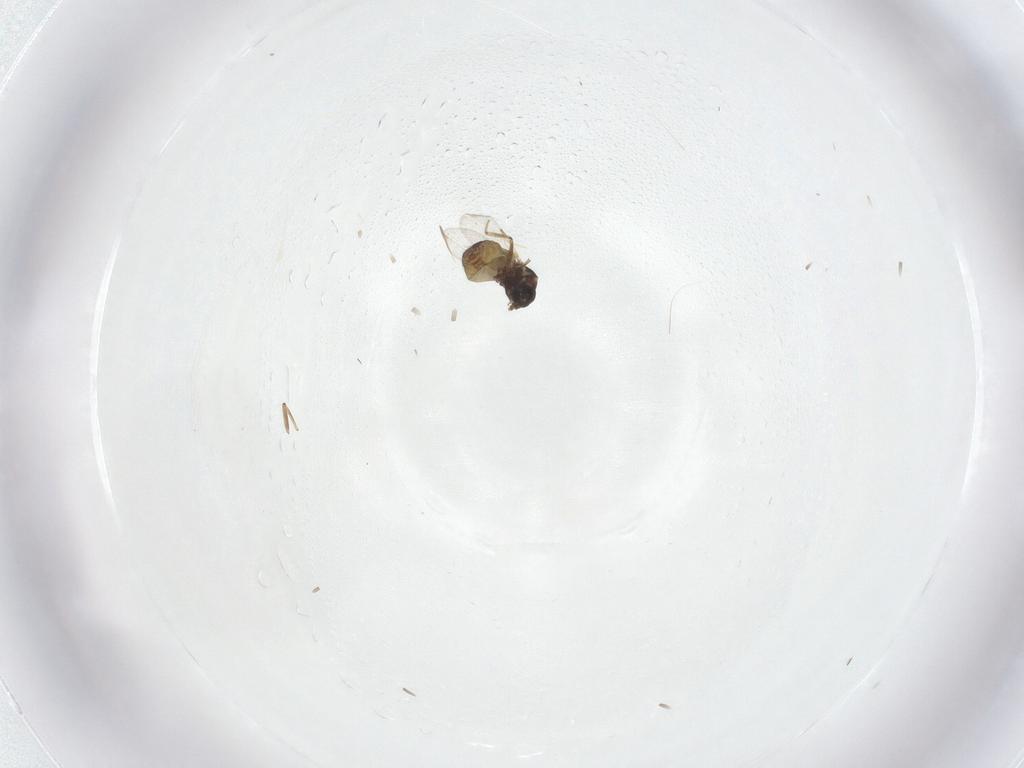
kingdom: Animalia
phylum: Arthropoda
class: Insecta
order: Diptera
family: Ceratopogonidae
